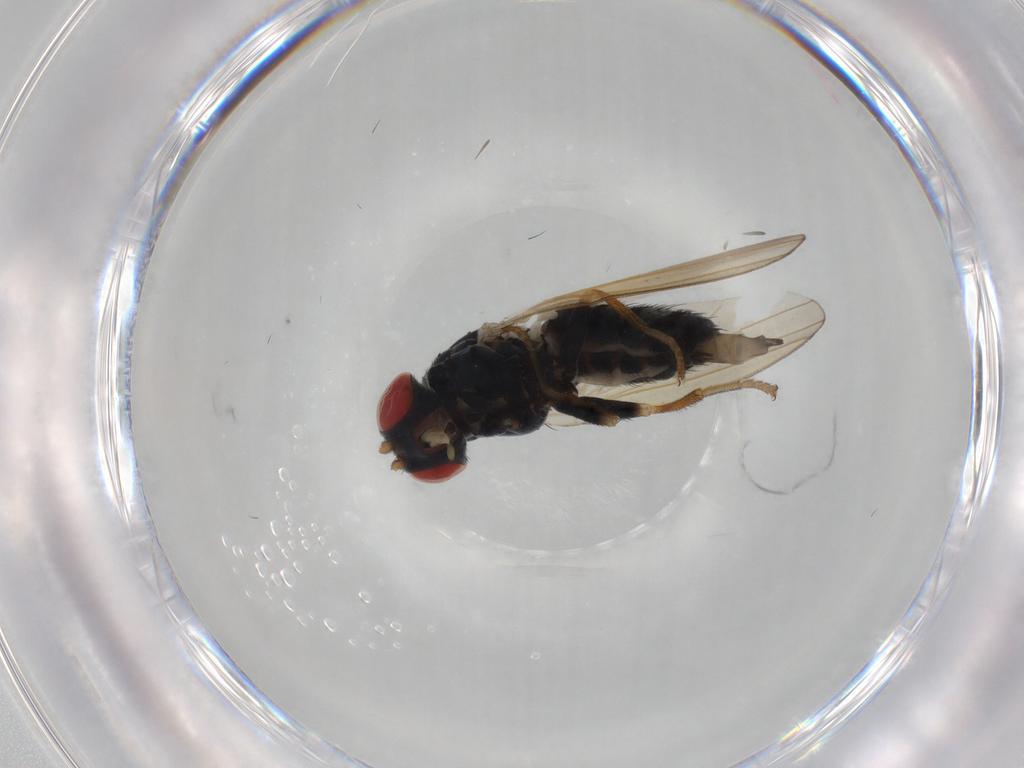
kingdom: Animalia
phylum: Arthropoda
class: Insecta
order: Diptera
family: Chamaemyiidae
